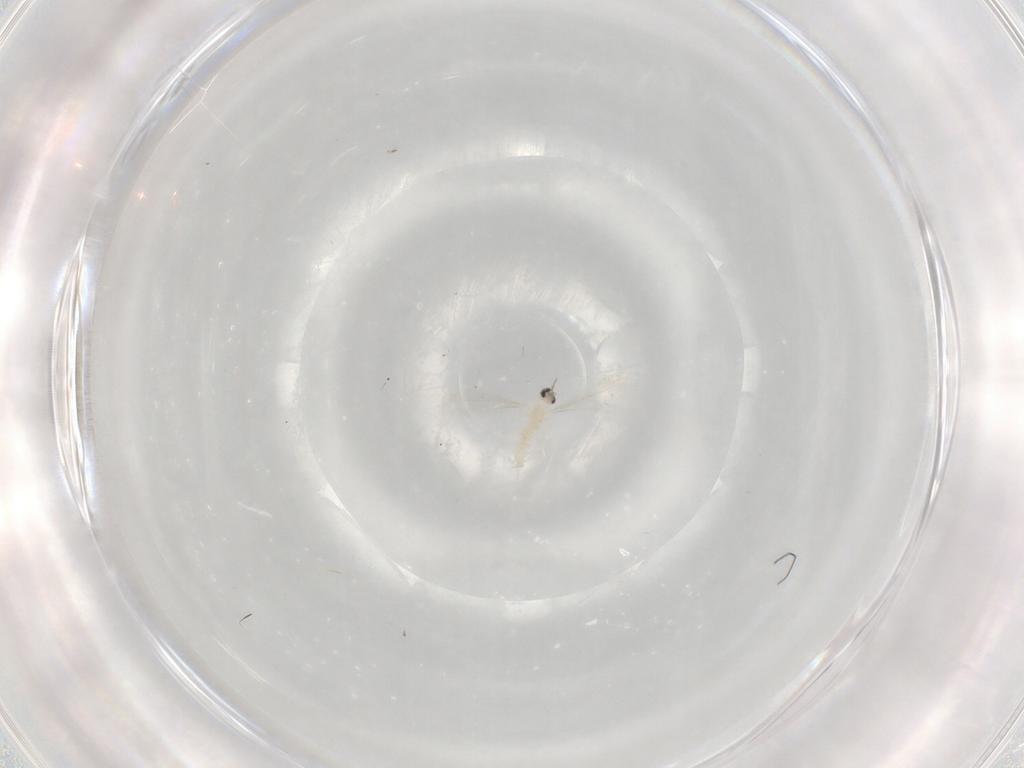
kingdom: Animalia
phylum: Arthropoda
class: Insecta
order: Diptera
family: Cecidomyiidae
